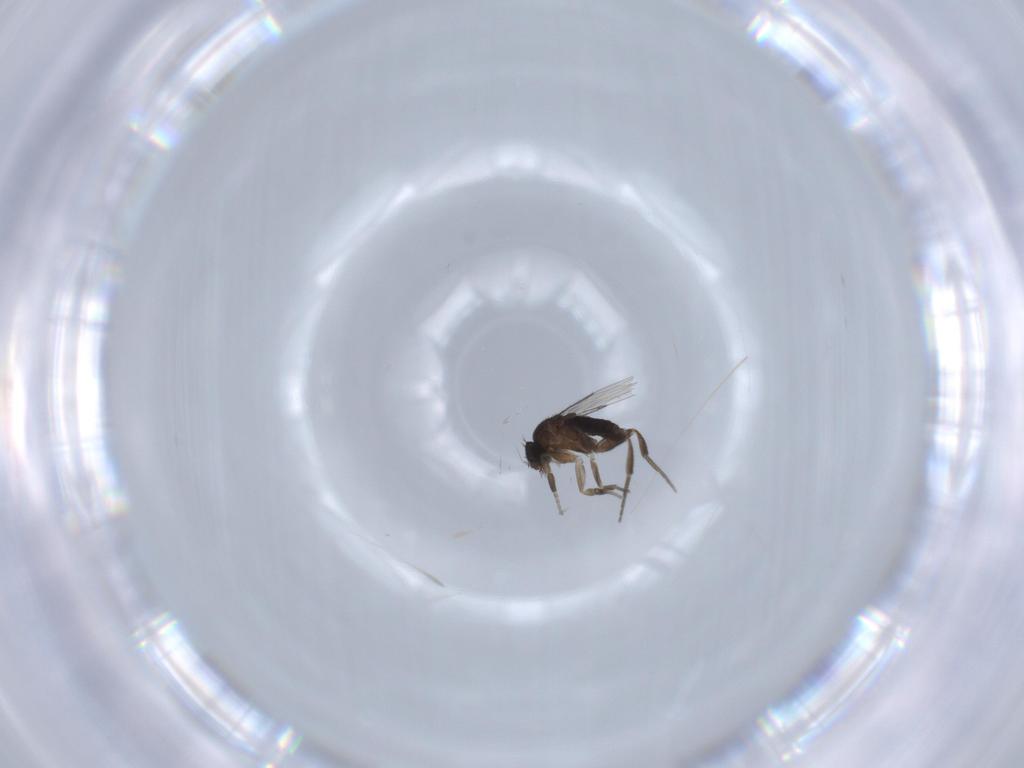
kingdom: Animalia
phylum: Arthropoda
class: Insecta
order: Diptera
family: Phoridae
